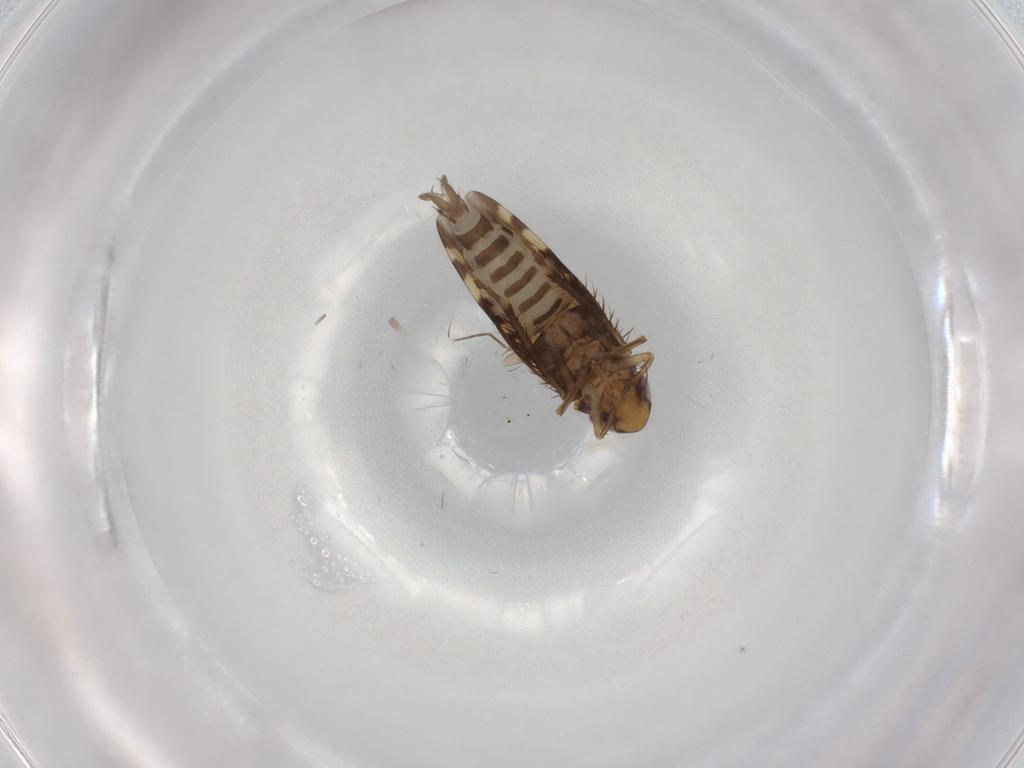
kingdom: Animalia
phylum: Arthropoda
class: Insecta
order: Hemiptera
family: Cicadellidae
